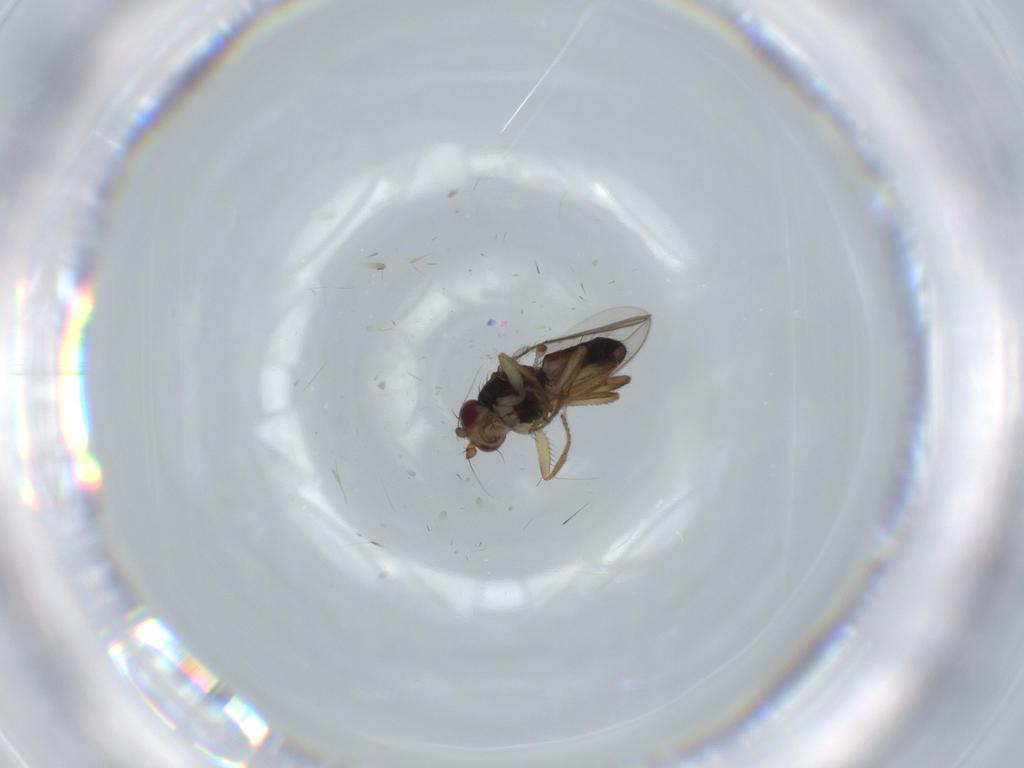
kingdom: Animalia
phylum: Arthropoda
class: Insecta
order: Diptera
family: Sphaeroceridae
